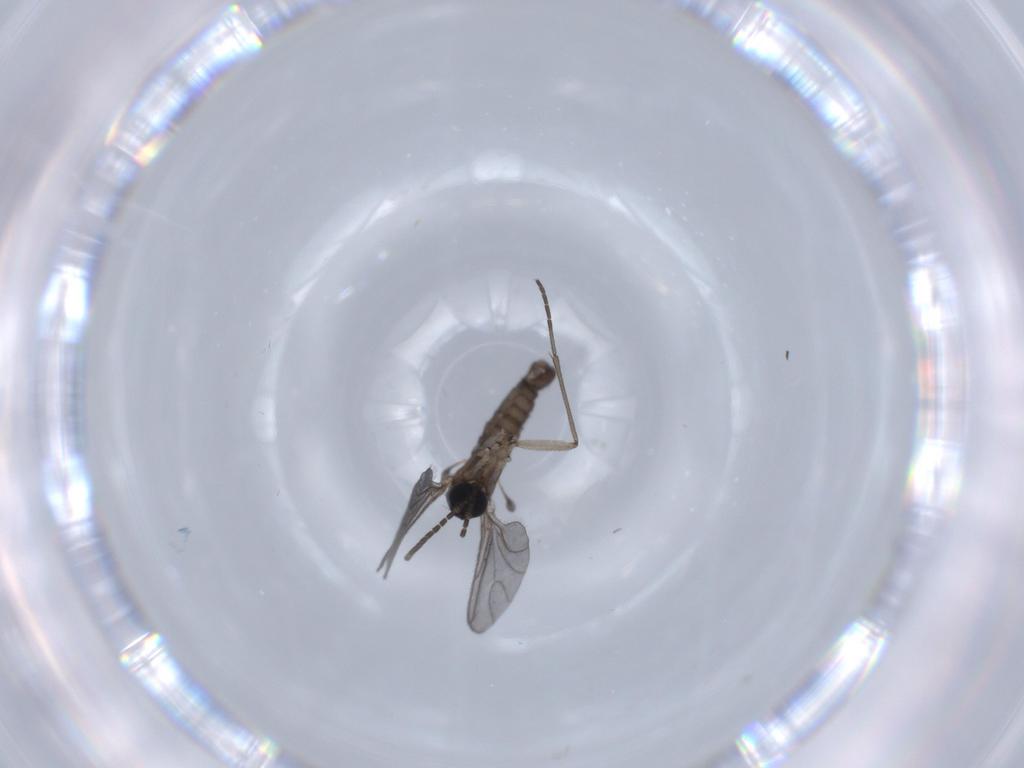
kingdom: Animalia
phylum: Arthropoda
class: Insecta
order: Diptera
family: Sciaridae
